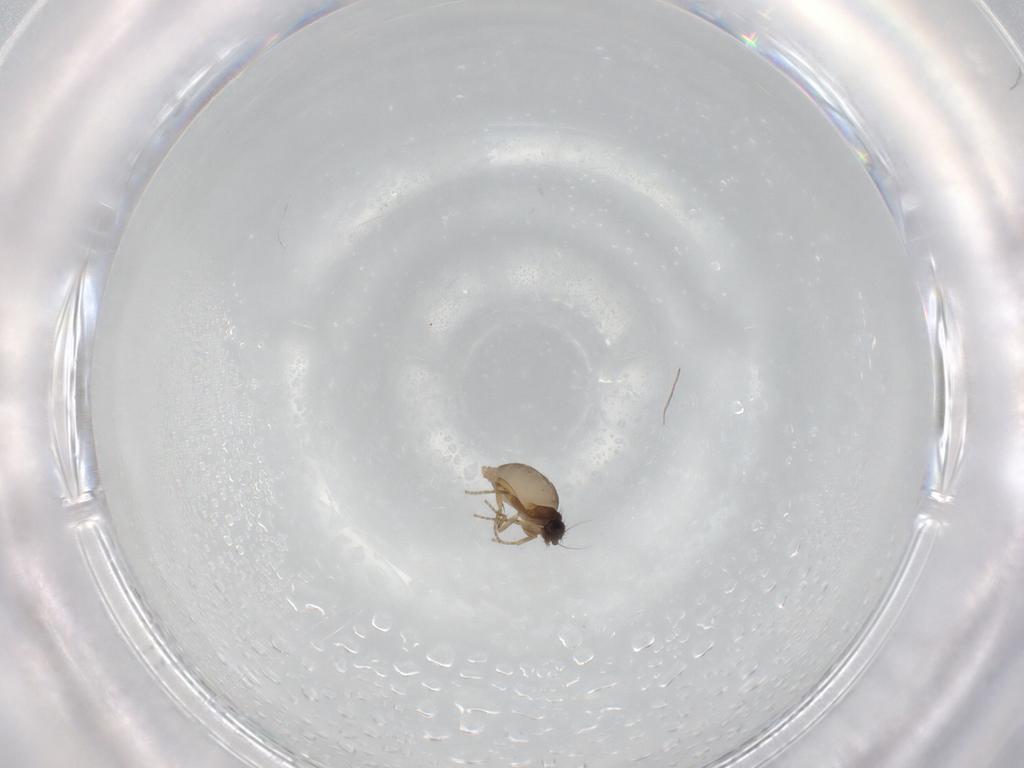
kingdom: Animalia
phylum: Arthropoda
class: Insecta
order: Diptera
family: Phoridae
